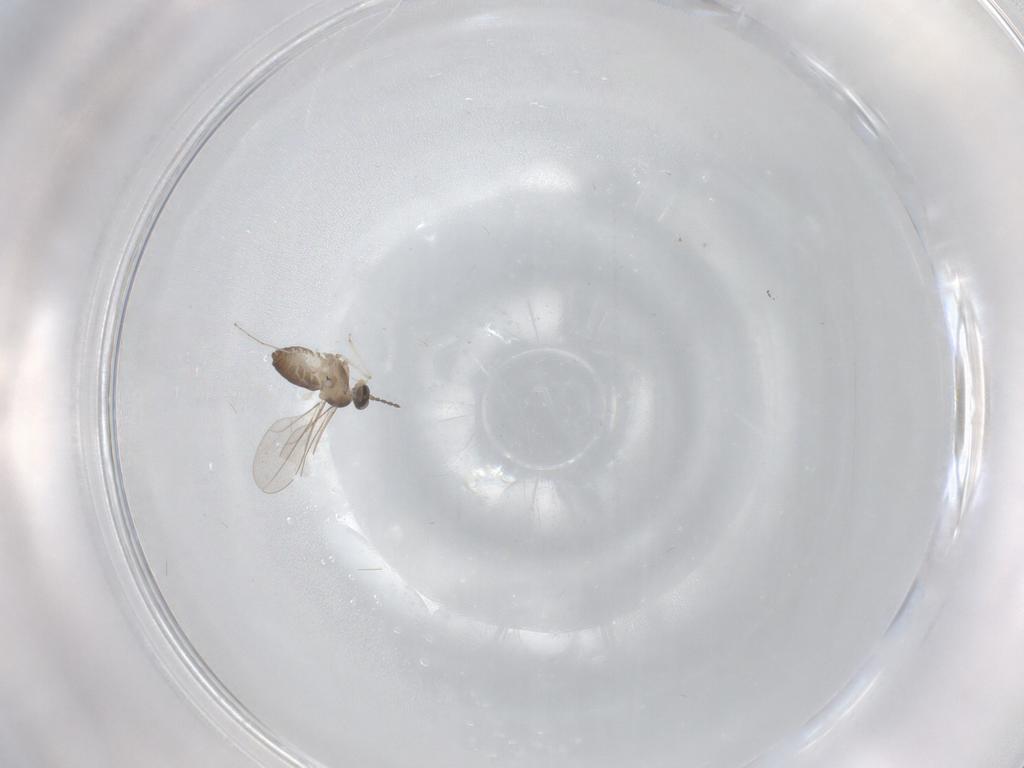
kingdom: Animalia
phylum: Arthropoda
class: Insecta
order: Diptera
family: Cecidomyiidae
